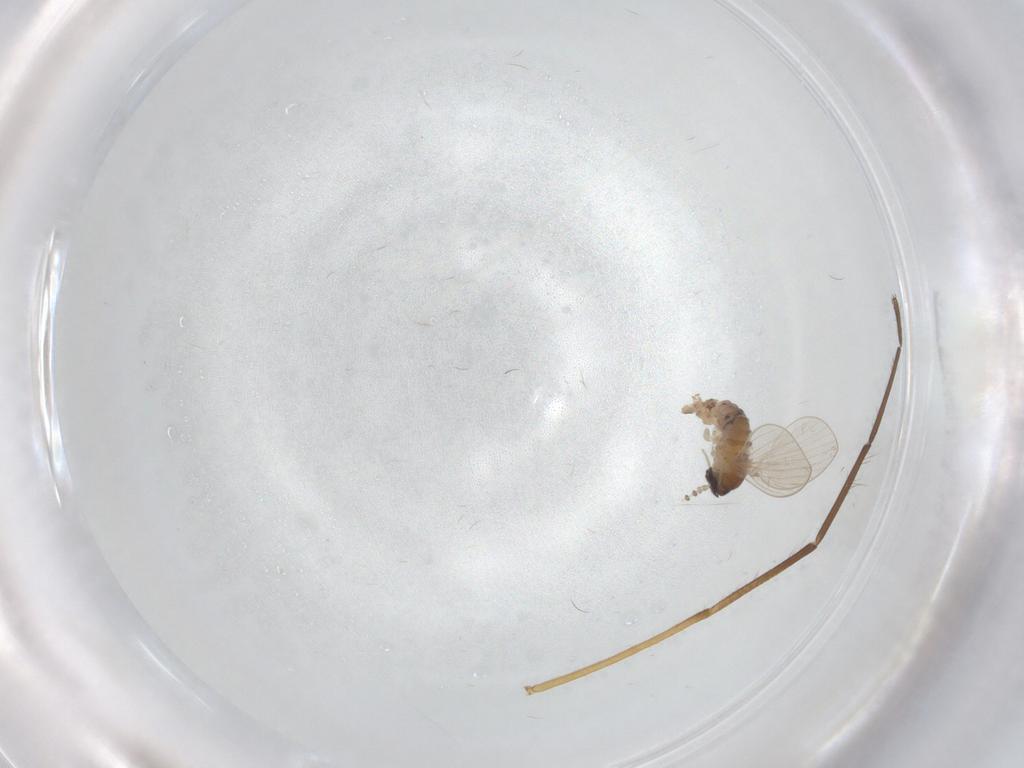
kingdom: Animalia
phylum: Arthropoda
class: Insecta
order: Diptera
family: Psychodidae
